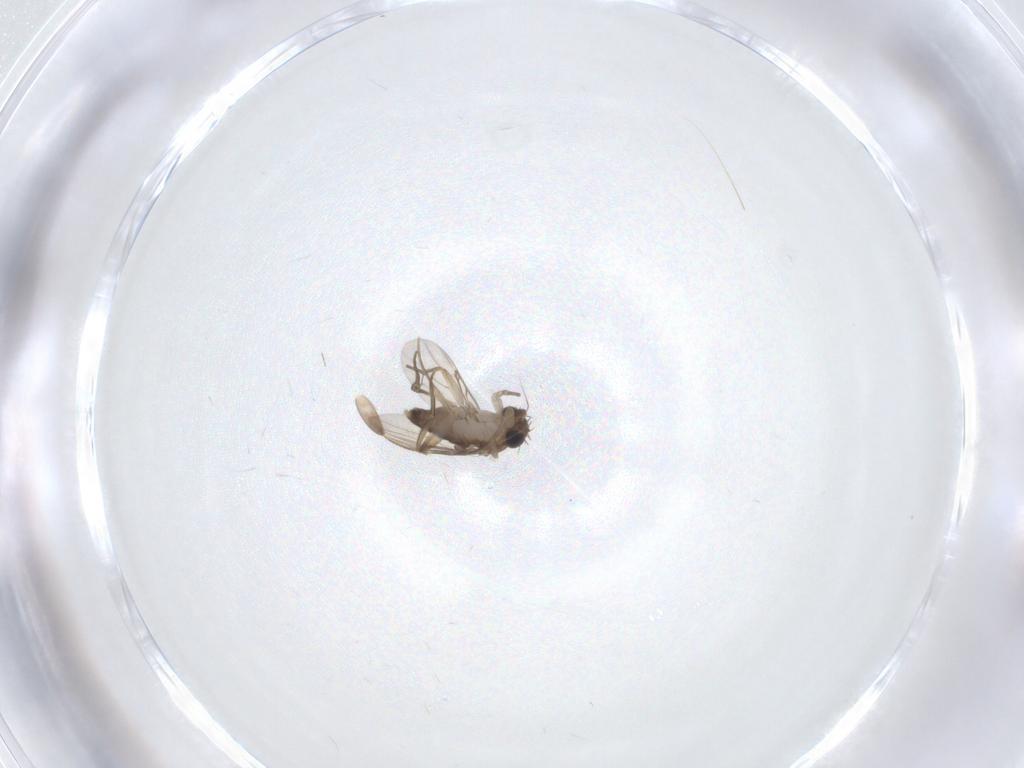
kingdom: Animalia
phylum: Arthropoda
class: Insecta
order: Diptera
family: Phoridae
